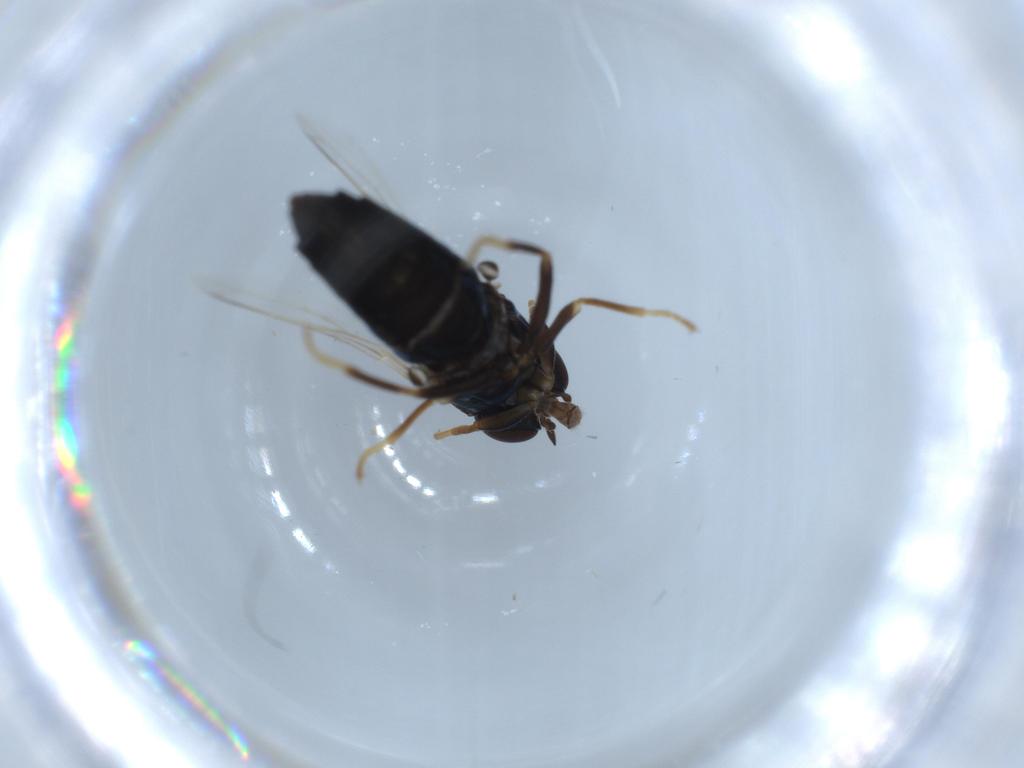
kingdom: Animalia
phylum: Arthropoda
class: Insecta
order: Diptera
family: Scenopinidae
